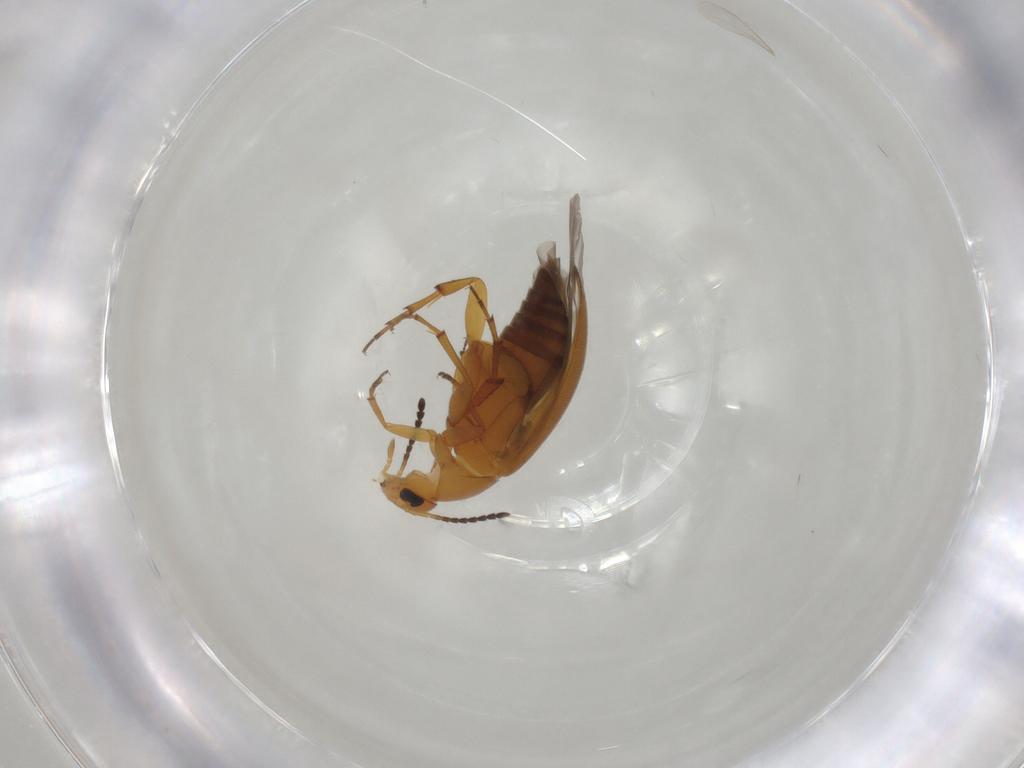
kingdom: Animalia
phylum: Arthropoda
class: Insecta
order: Coleoptera
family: Scraptiidae
